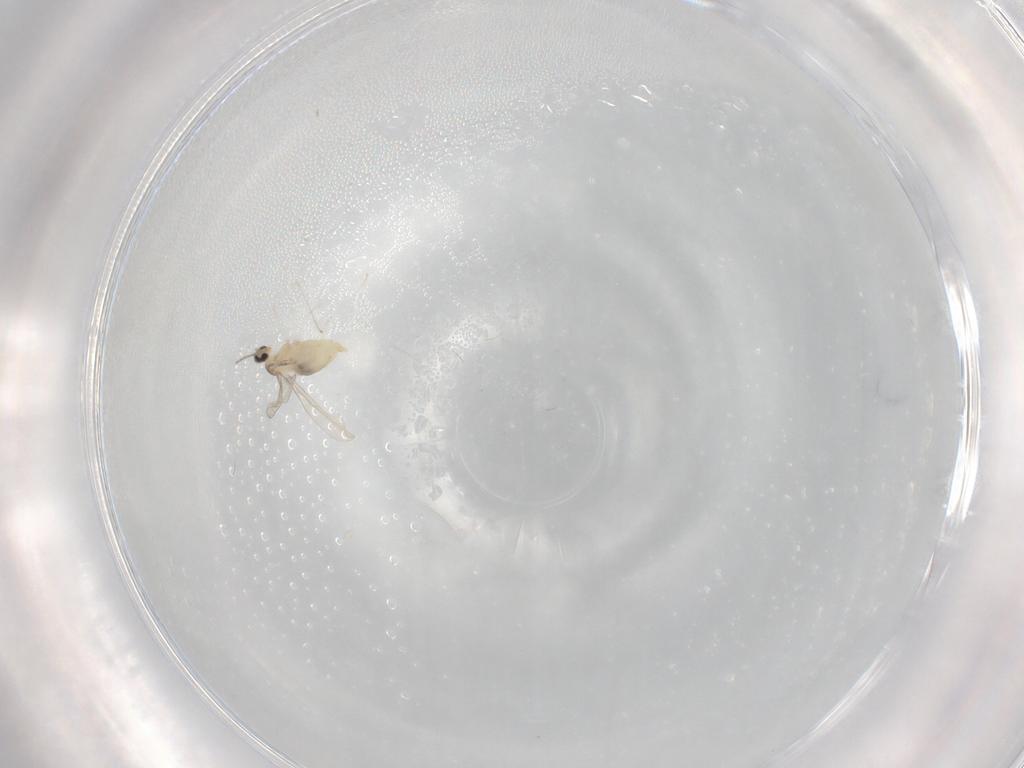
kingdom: Animalia
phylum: Arthropoda
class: Insecta
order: Diptera
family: Cecidomyiidae
